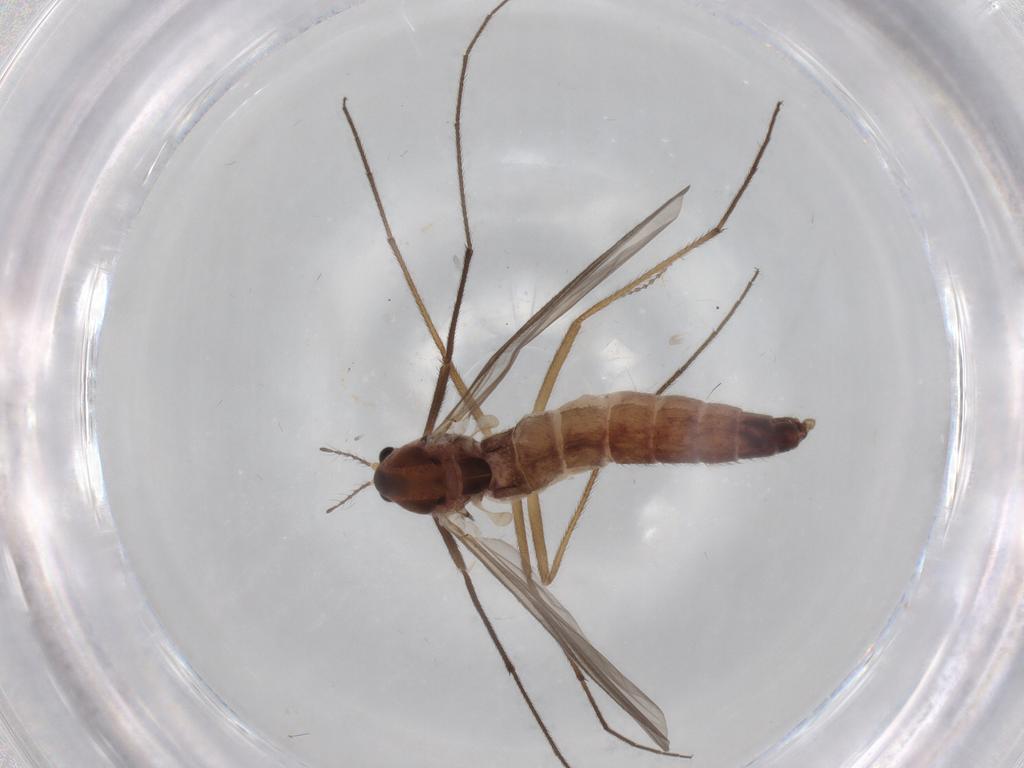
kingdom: Animalia
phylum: Arthropoda
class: Insecta
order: Diptera
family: Chironomidae
